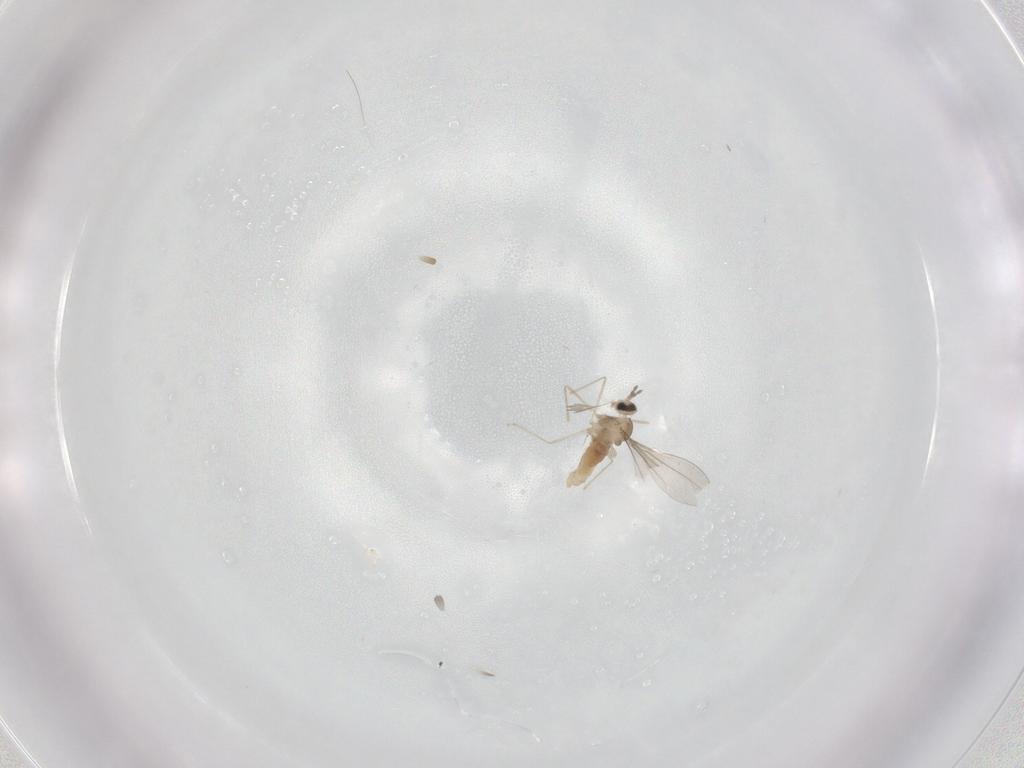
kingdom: Animalia
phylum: Arthropoda
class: Insecta
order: Diptera
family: Cecidomyiidae
